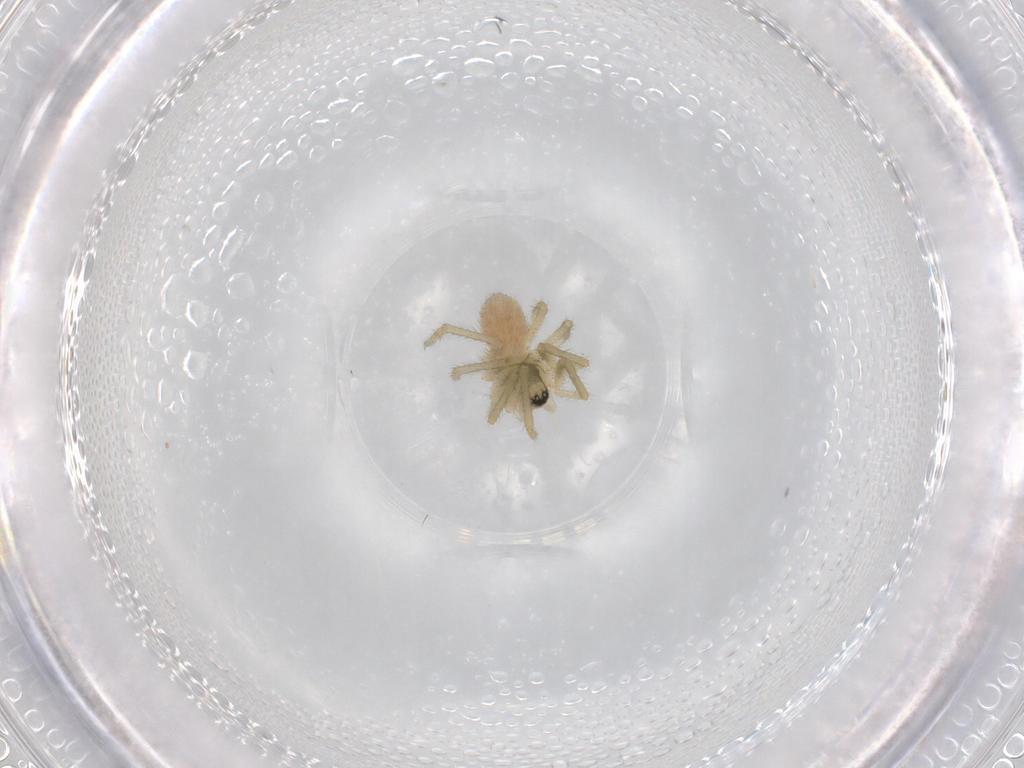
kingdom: Animalia
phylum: Arthropoda
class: Arachnida
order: Araneae
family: Linyphiidae
